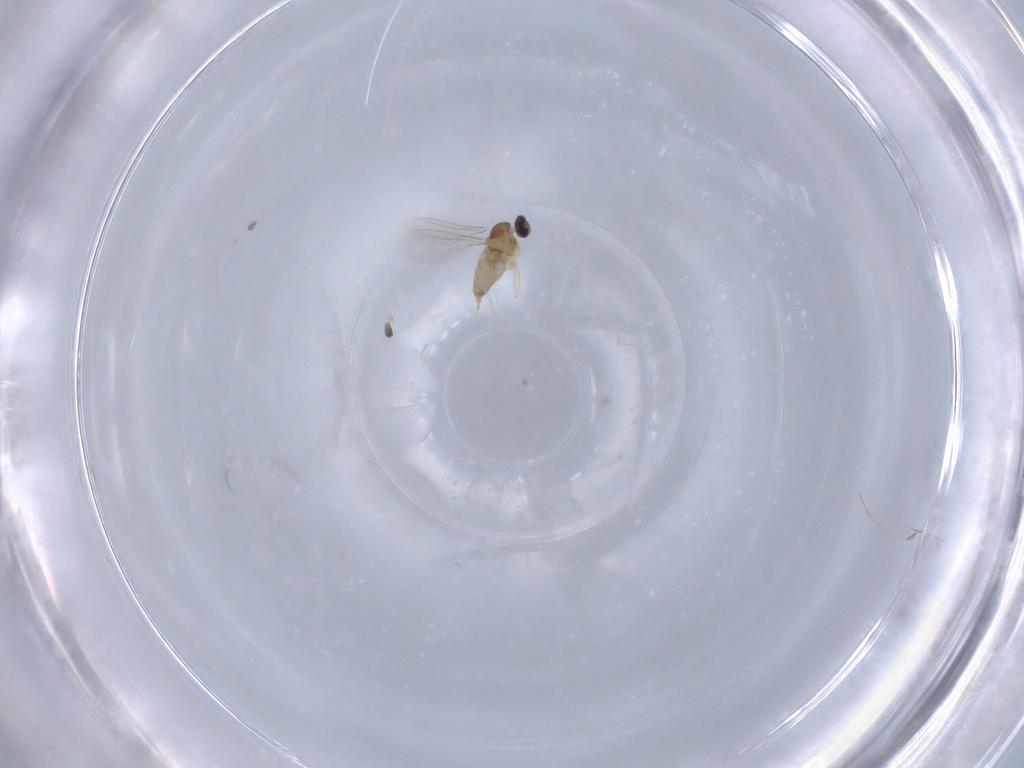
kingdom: Animalia
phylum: Arthropoda
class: Insecta
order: Diptera
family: Cecidomyiidae
